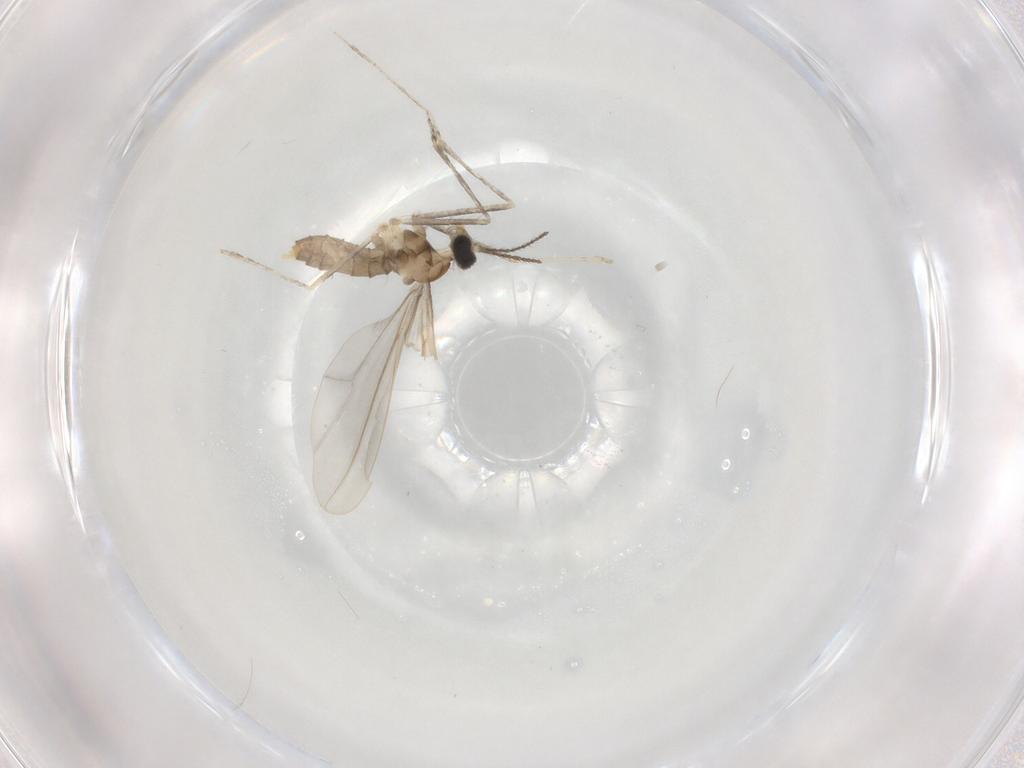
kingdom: Animalia
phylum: Arthropoda
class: Insecta
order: Diptera
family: Cecidomyiidae
